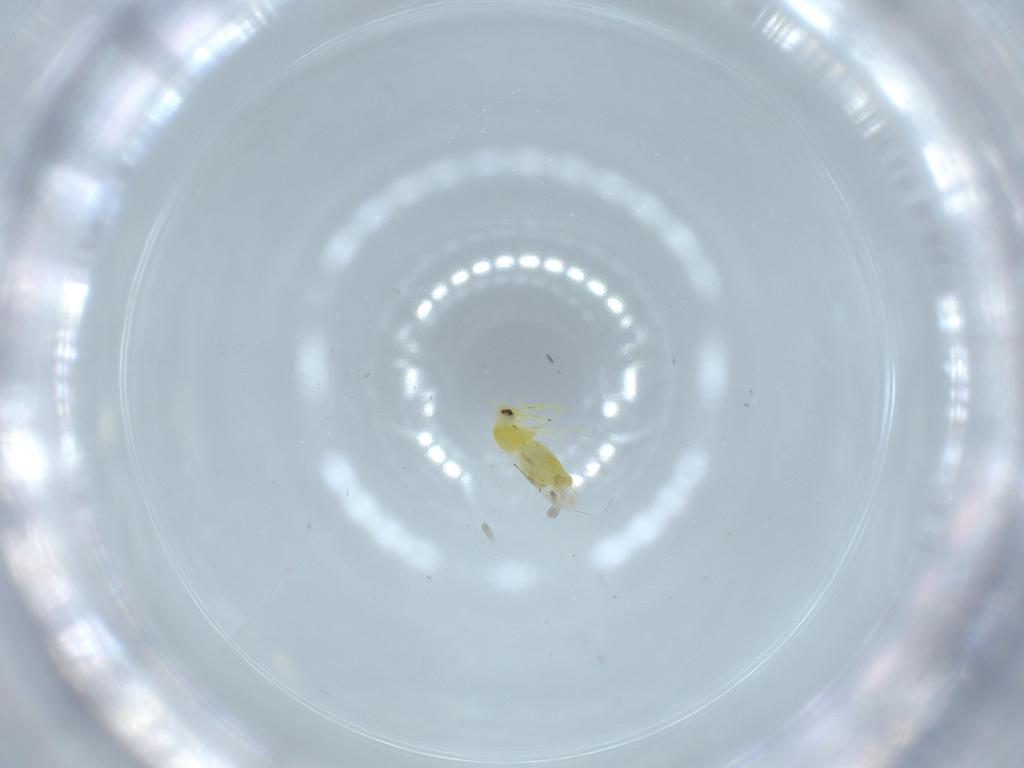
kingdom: Animalia
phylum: Arthropoda
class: Insecta
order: Hemiptera
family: Aleyrodidae
